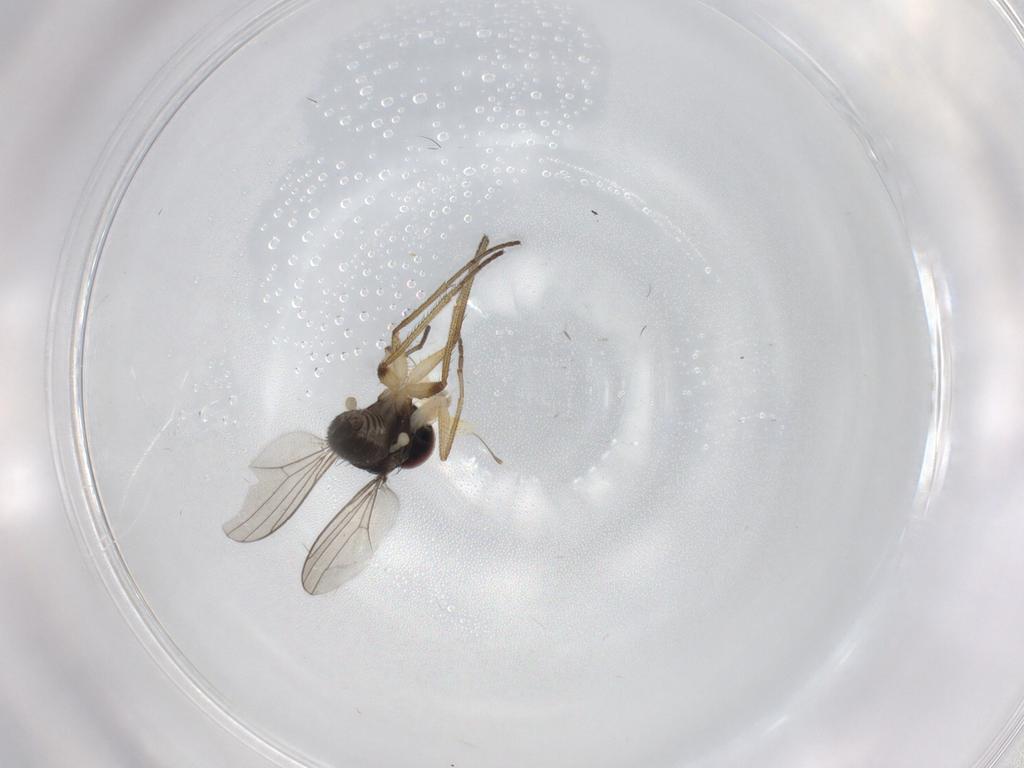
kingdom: Animalia
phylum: Arthropoda
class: Insecta
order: Diptera
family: Dolichopodidae
